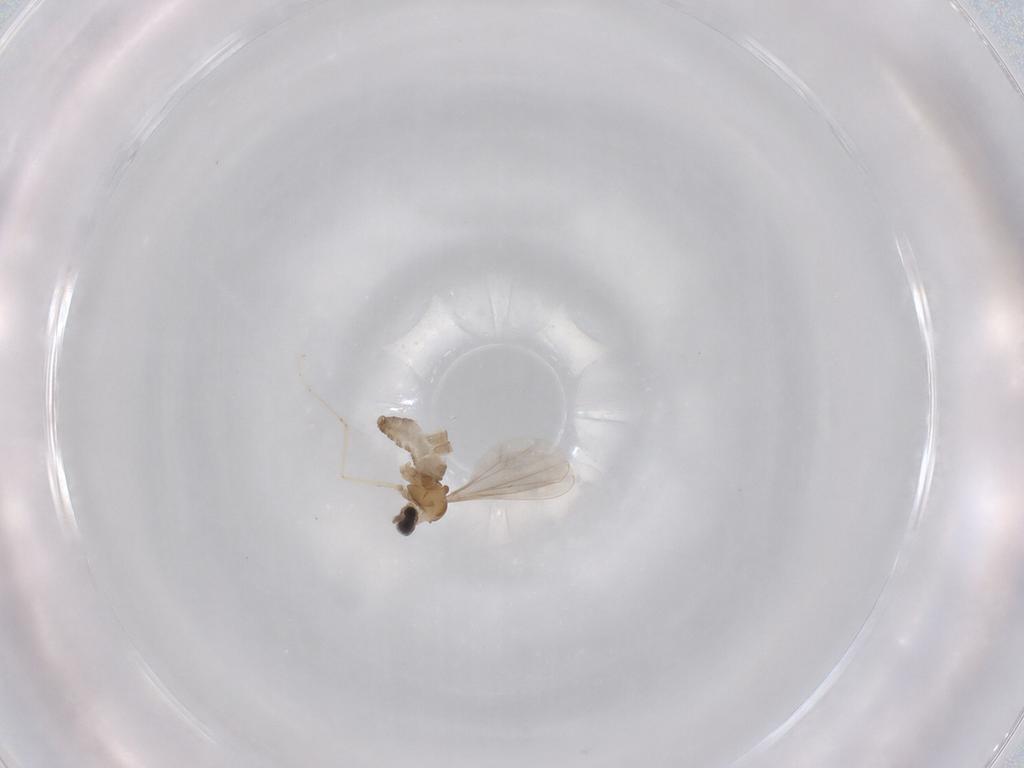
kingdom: Animalia
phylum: Arthropoda
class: Insecta
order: Diptera
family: Cecidomyiidae
